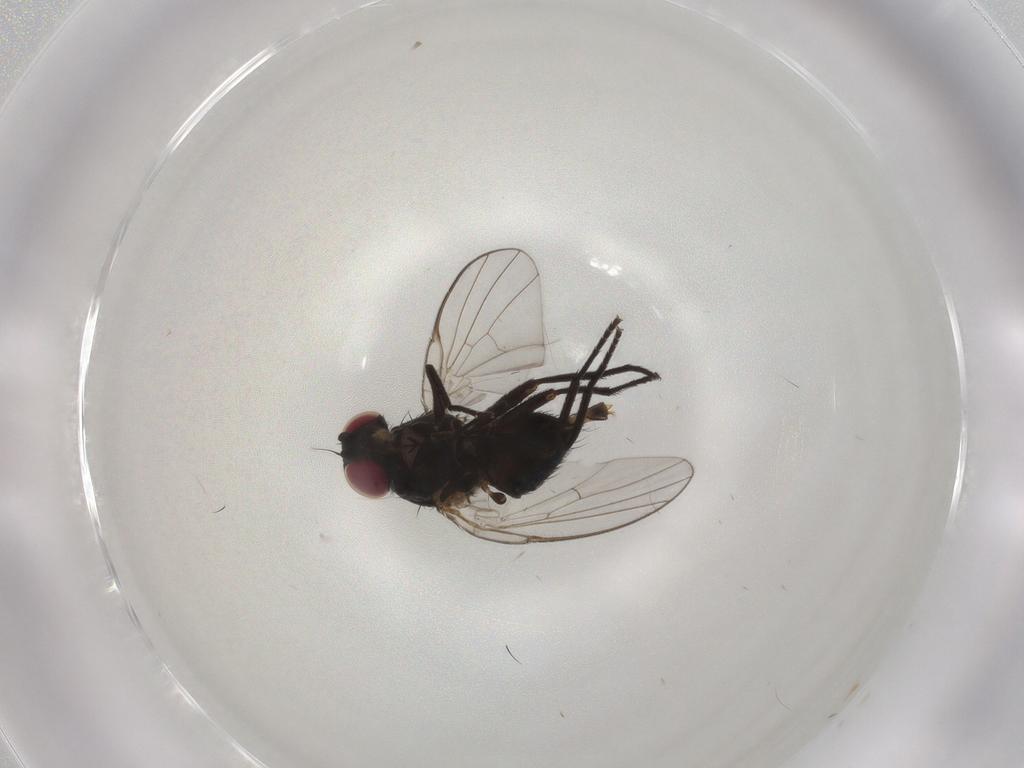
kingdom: Animalia
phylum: Arthropoda
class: Insecta
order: Diptera
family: Agromyzidae
